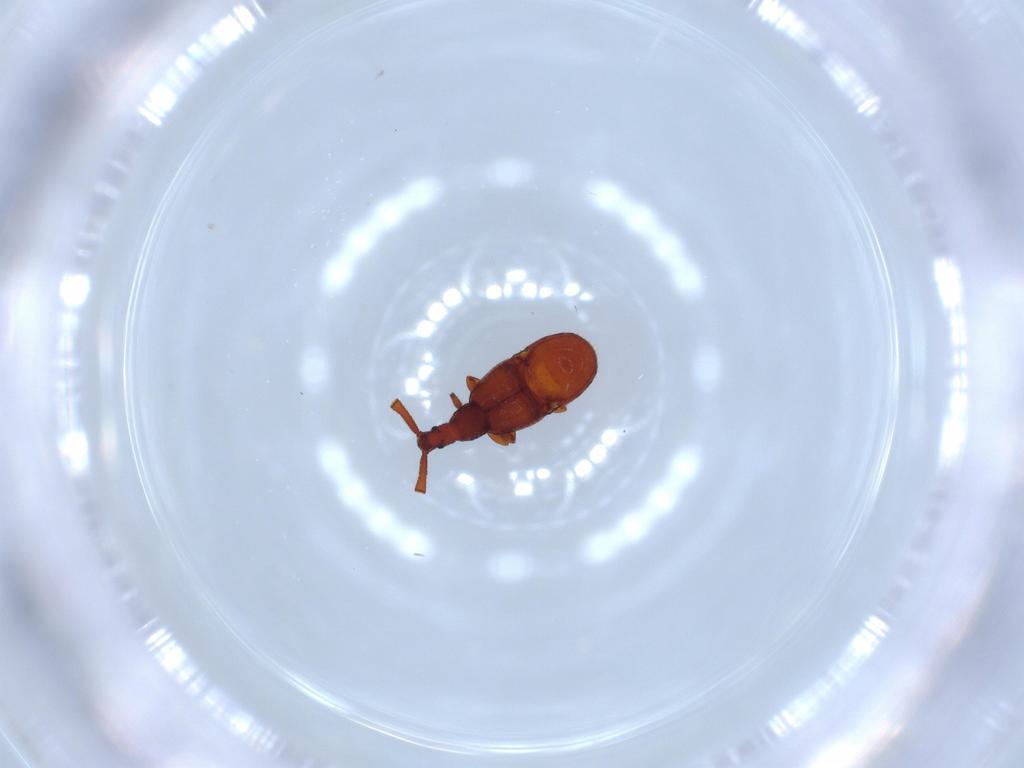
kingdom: Animalia
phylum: Arthropoda
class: Insecta
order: Coleoptera
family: Staphylinidae
